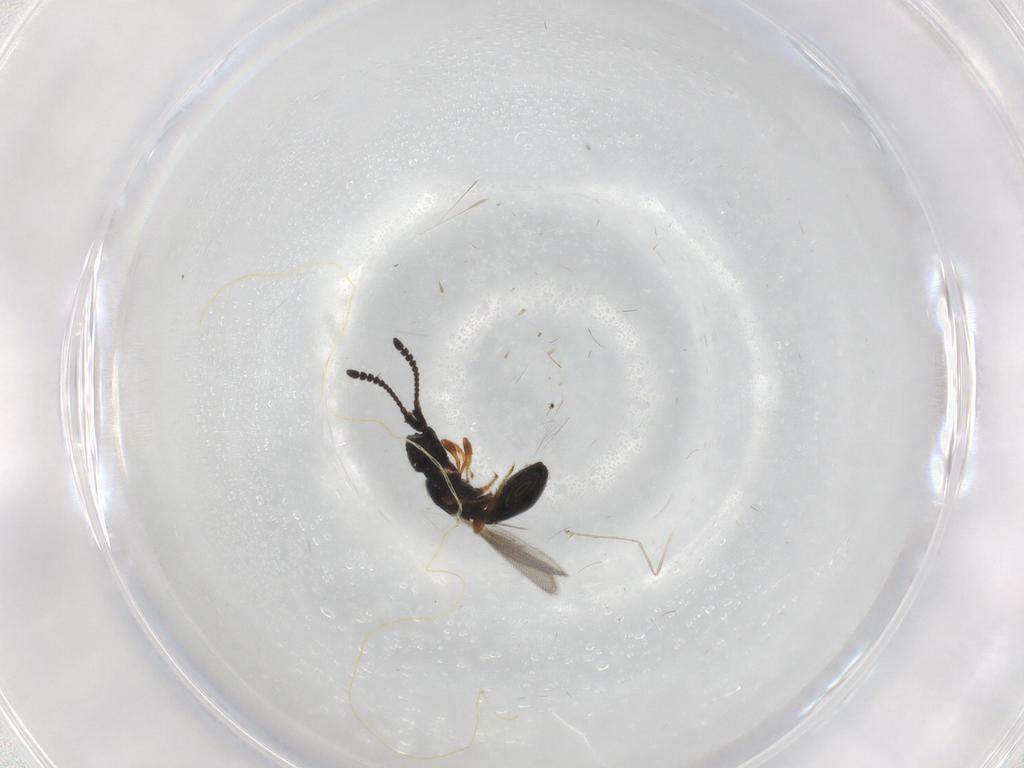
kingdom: Animalia
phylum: Arthropoda
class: Insecta
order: Hymenoptera
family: Diapriidae
